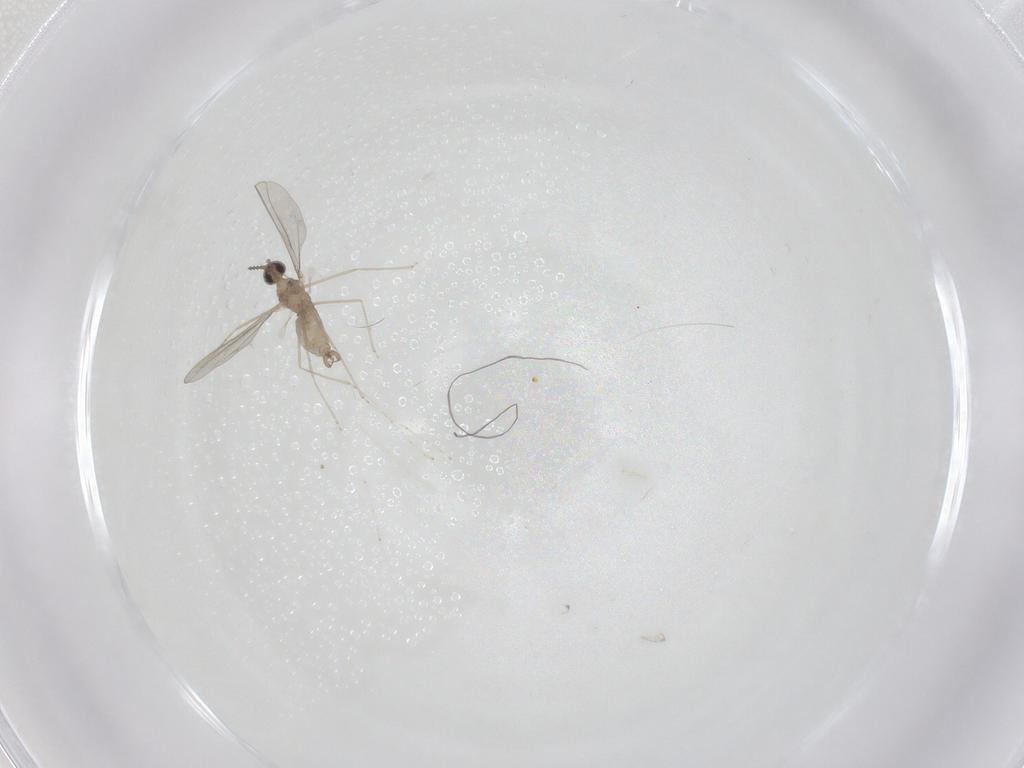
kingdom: Animalia
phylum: Arthropoda
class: Insecta
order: Diptera
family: Cecidomyiidae
